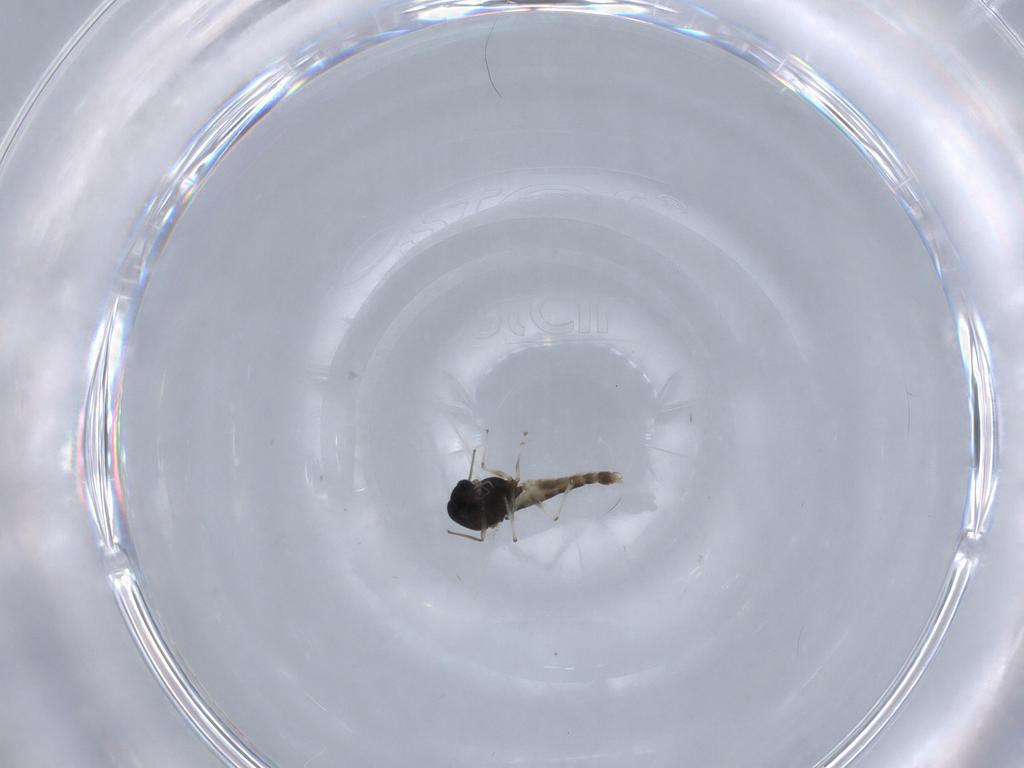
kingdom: Animalia
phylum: Arthropoda
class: Insecta
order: Diptera
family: Chironomidae
